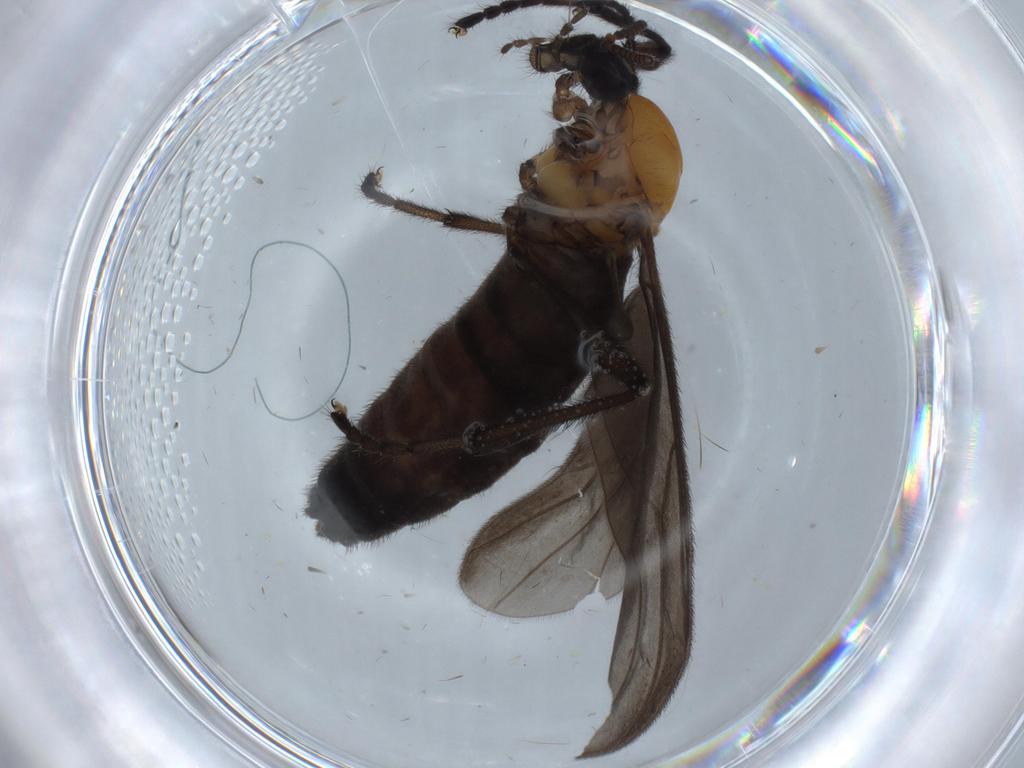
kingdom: Animalia
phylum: Arthropoda
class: Insecta
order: Diptera
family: Bibionidae
